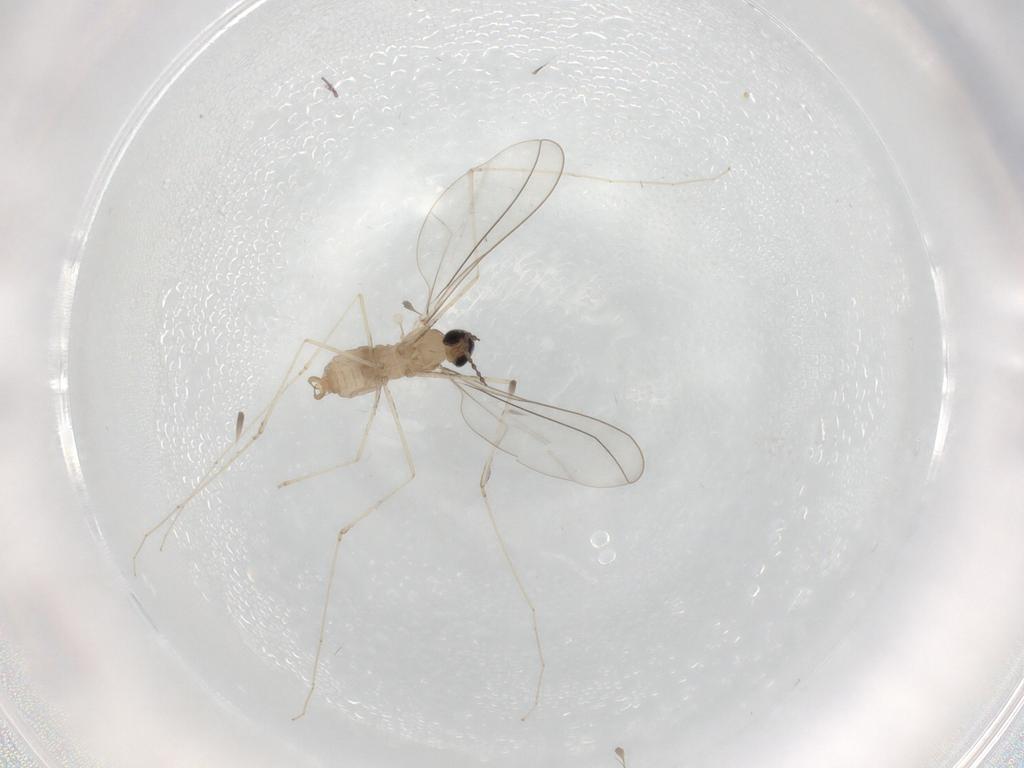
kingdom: Animalia
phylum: Arthropoda
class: Insecta
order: Diptera
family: Cecidomyiidae
